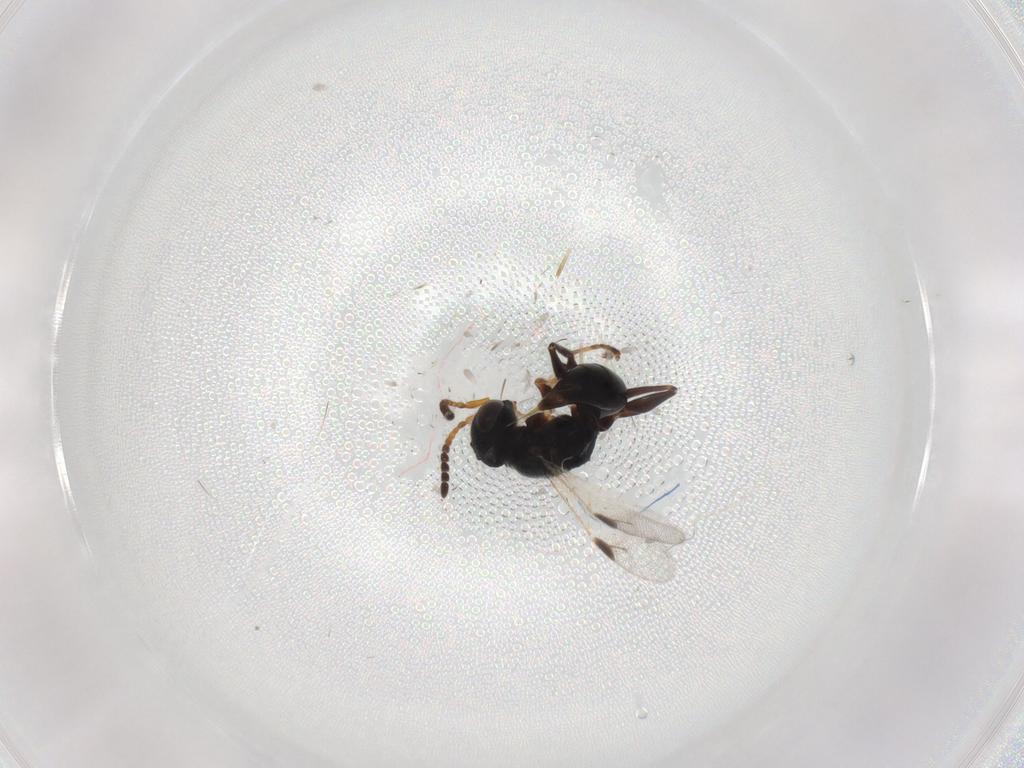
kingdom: Animalia
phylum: Arthropoda
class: Insecta
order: Hymenoptera
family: Dryinidae
